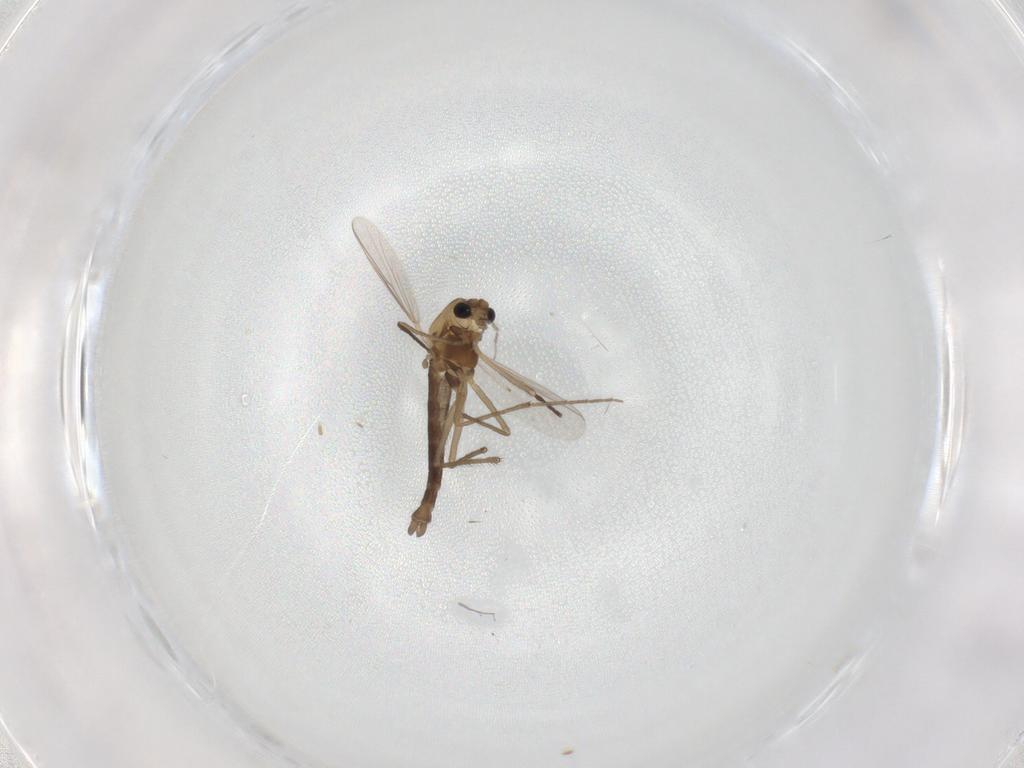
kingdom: Animalia
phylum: Arthropoda
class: Insecta
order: Diptera
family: Chironomidae
